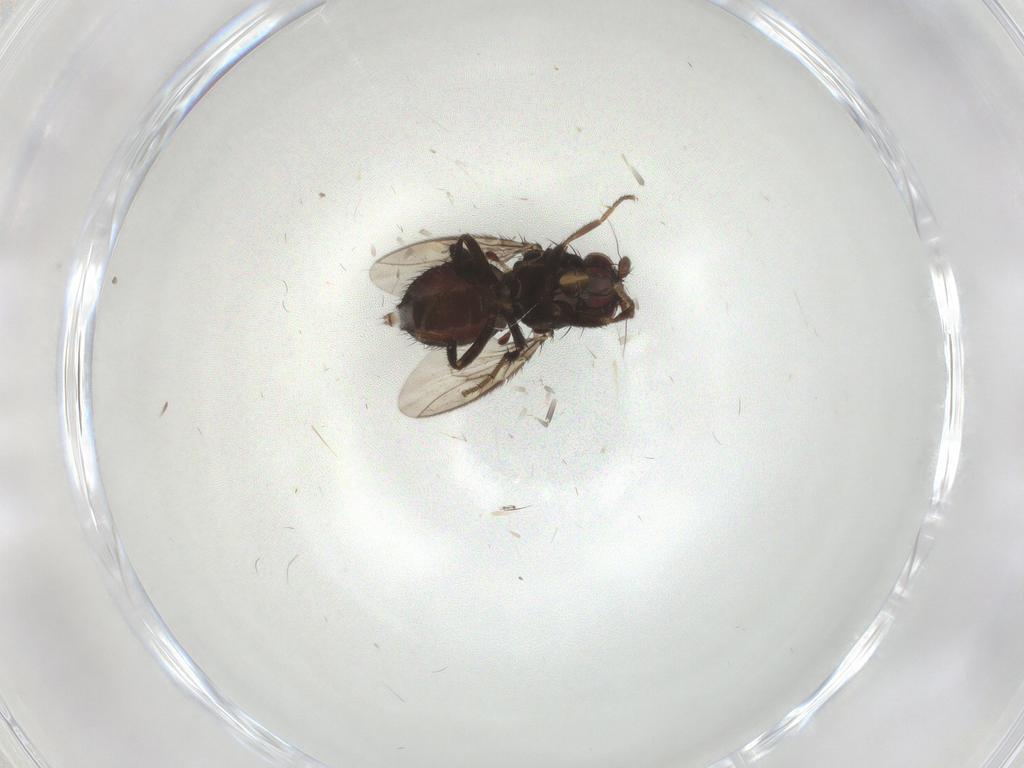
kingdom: Animalia
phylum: Arthropoda
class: Insecta
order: Diptera
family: Sphaeroceridae
